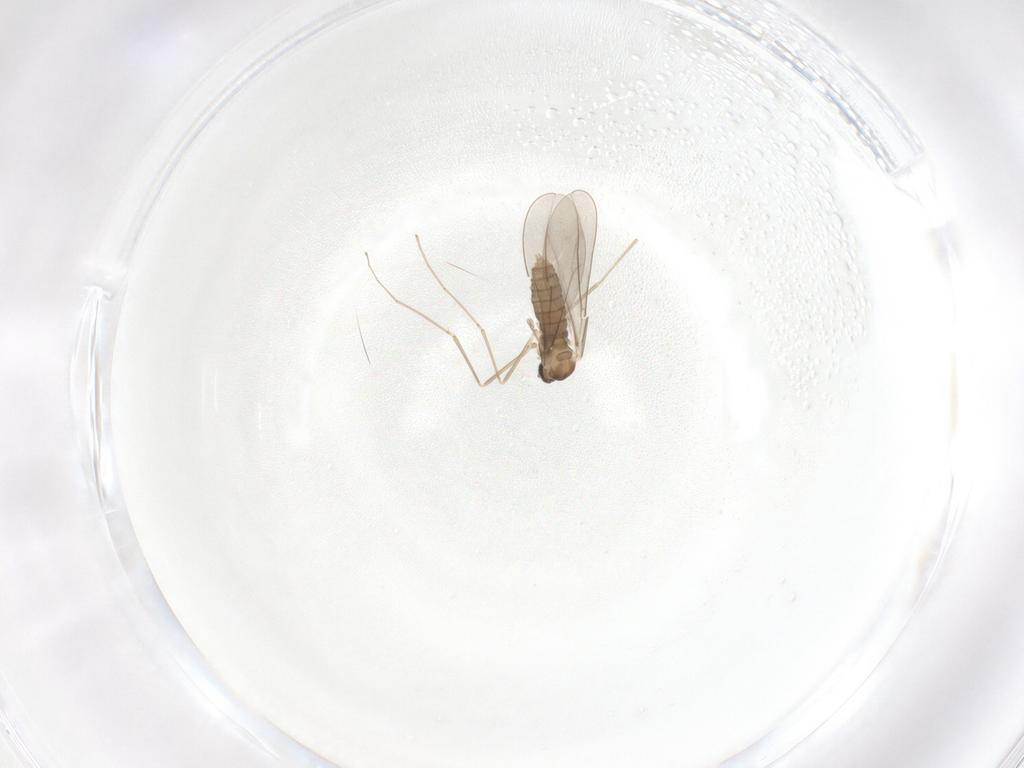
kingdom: Animalia
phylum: Arthropoda
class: Insecta
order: Diptera
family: Cecidomyiidae
